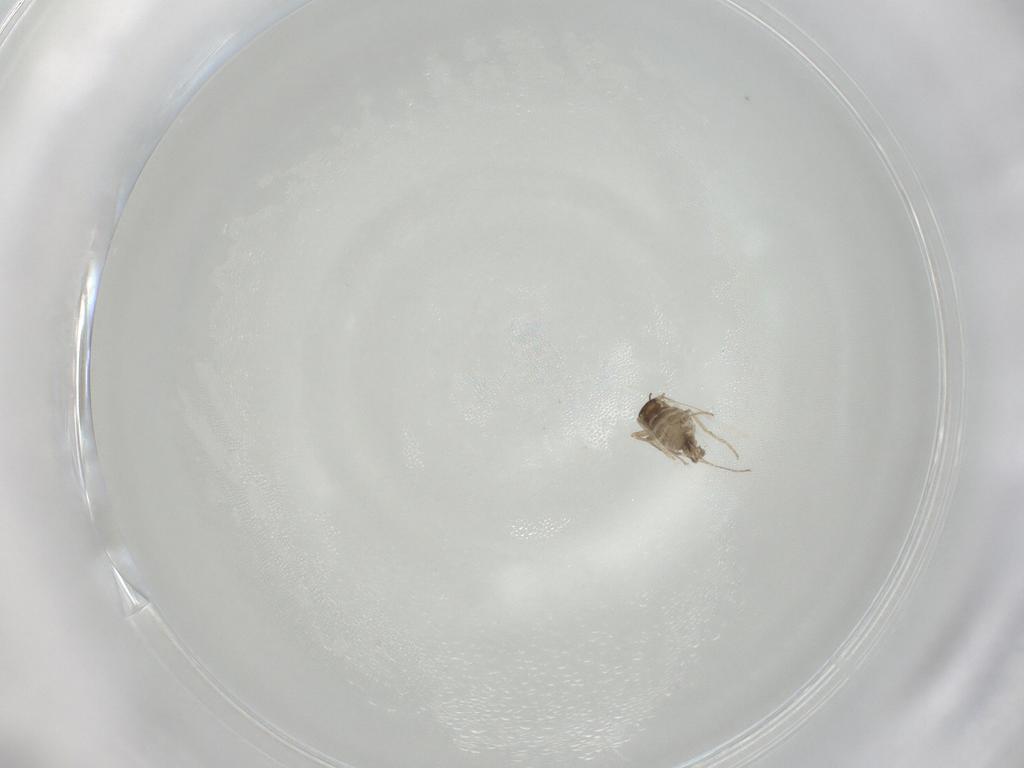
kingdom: Animalia
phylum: Arthropoda
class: Insecta
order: Diptera
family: Cecidomyiidae
